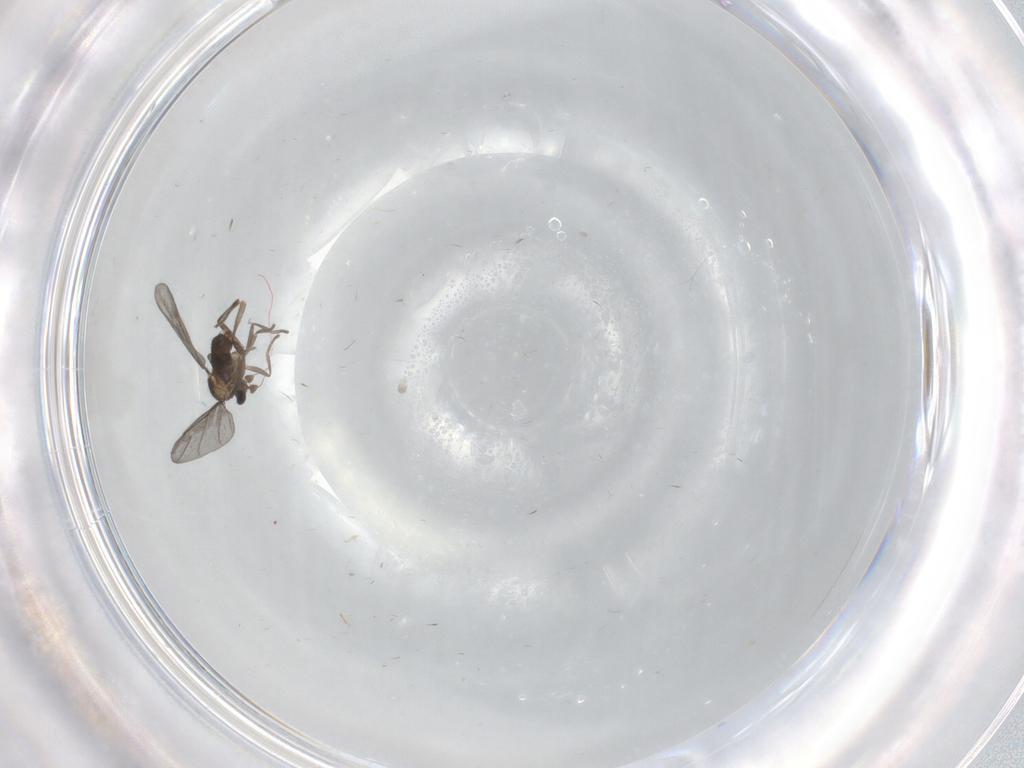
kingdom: Animalia
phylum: Arthropoda
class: Insecta
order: Diptera
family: Phoridae
